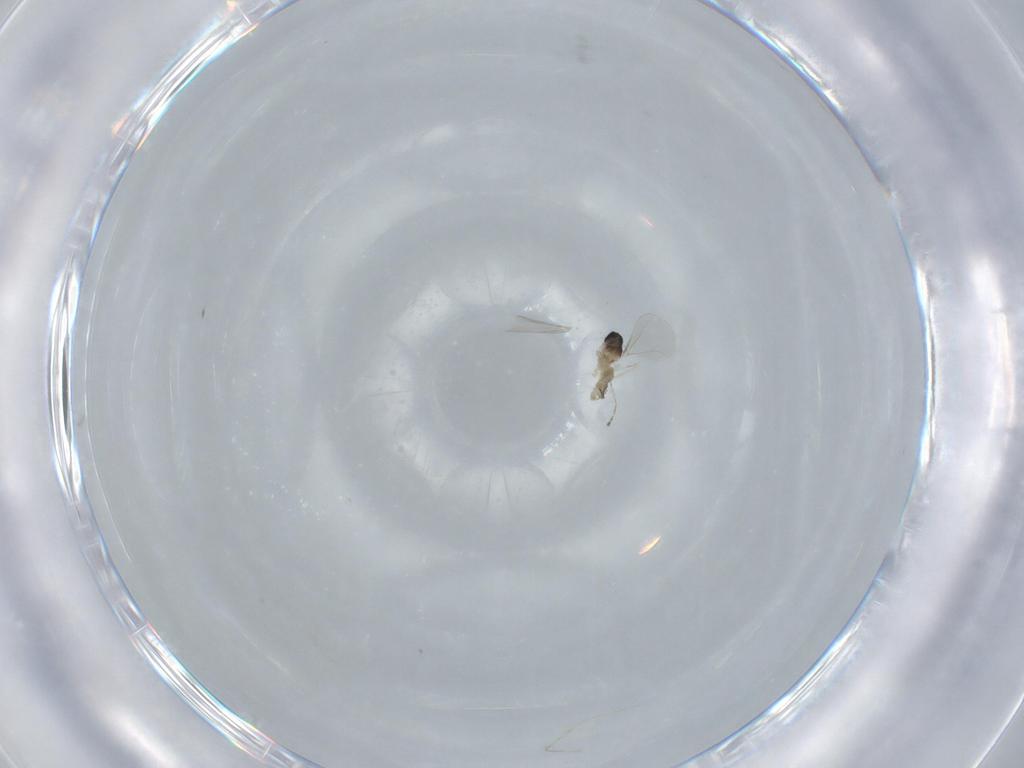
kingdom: Animalia
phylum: Arthropoda
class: Insecta
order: Diptera
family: Cecidomyiidae
